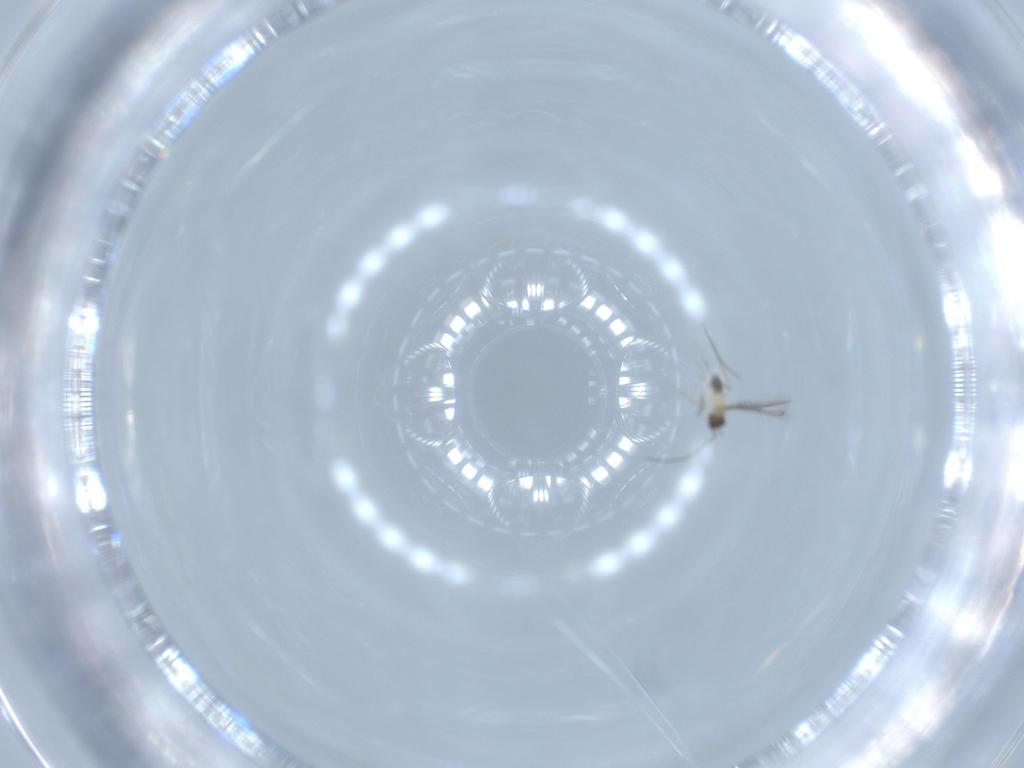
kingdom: Animalia
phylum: Arthropoda
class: Insecta
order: Hymenoptera
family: Mymaridae
